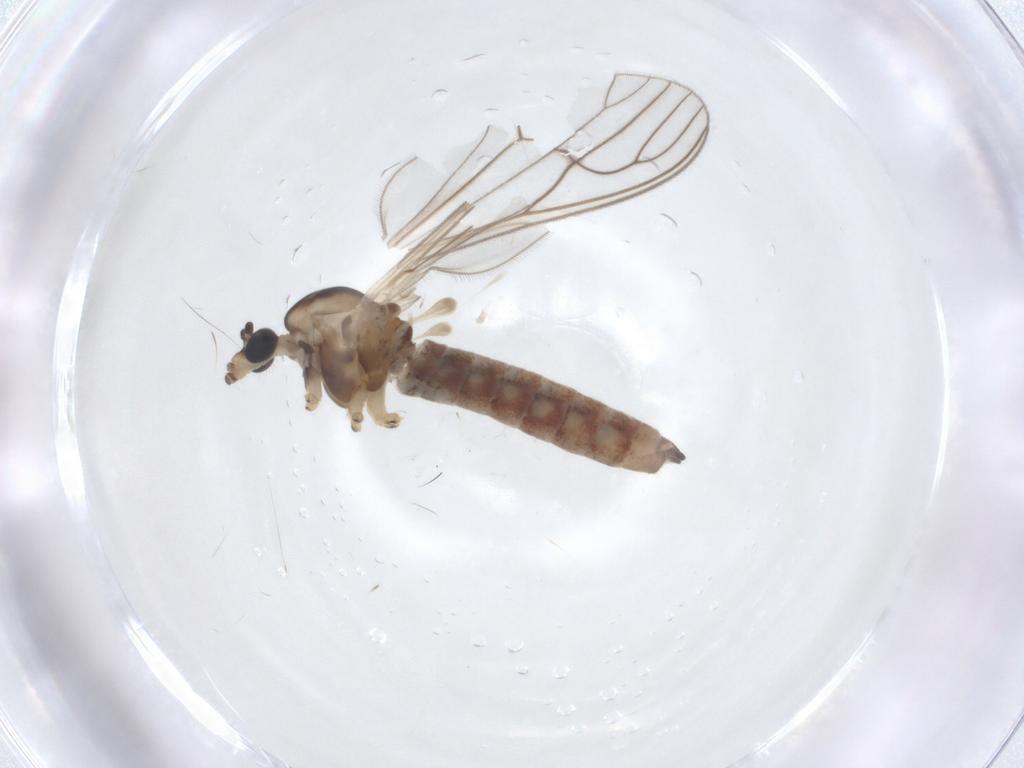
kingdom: Animalia
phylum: Arthropoda
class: Insecta
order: Diptera
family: Dixidae
